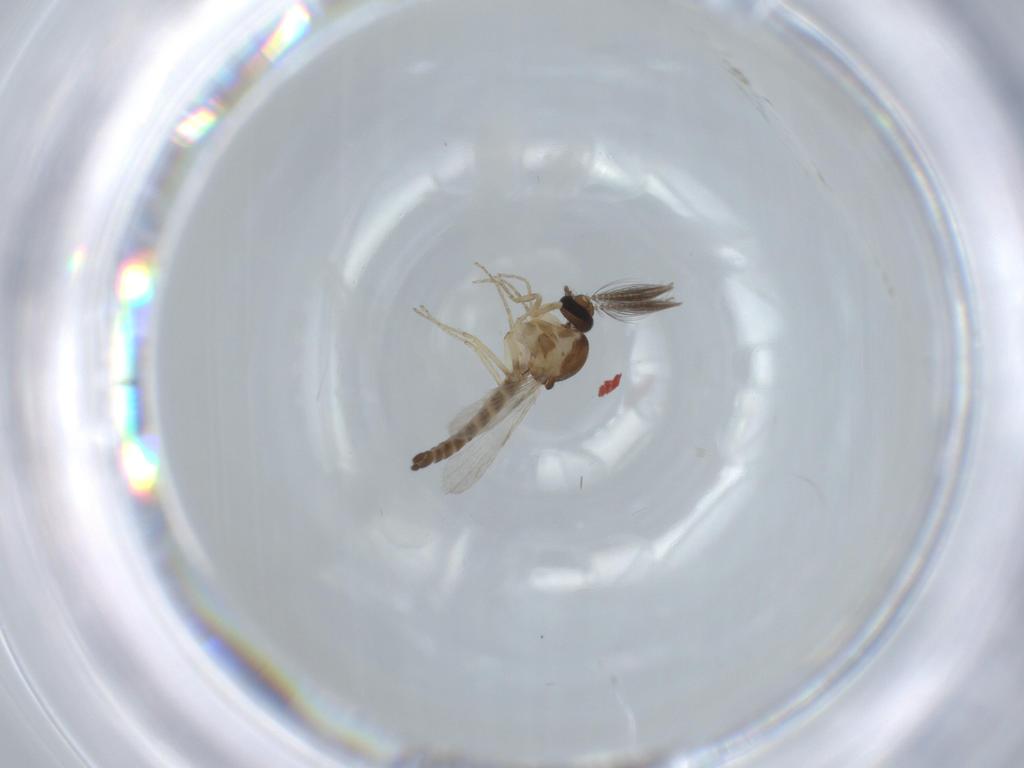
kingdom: Animalia
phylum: Arthropoda
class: Insecta
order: Diptera
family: Ceratopogonidae
